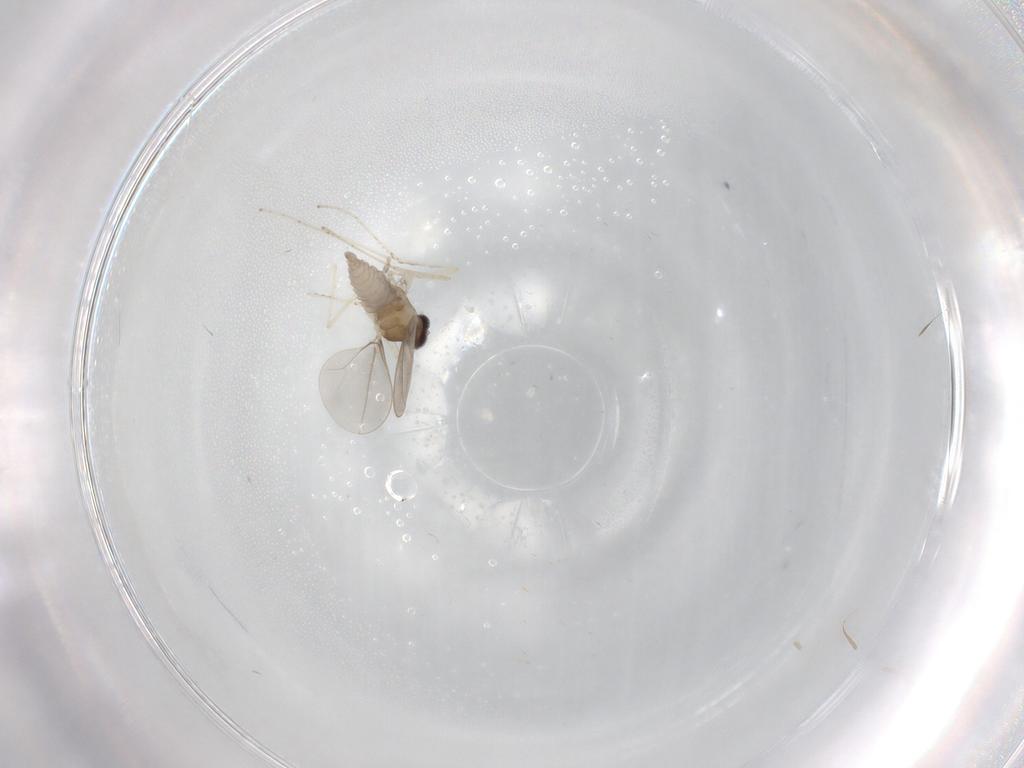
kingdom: Animalia
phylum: Arthropoda
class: Insecta
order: Diptera
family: Cecidomyiidae
